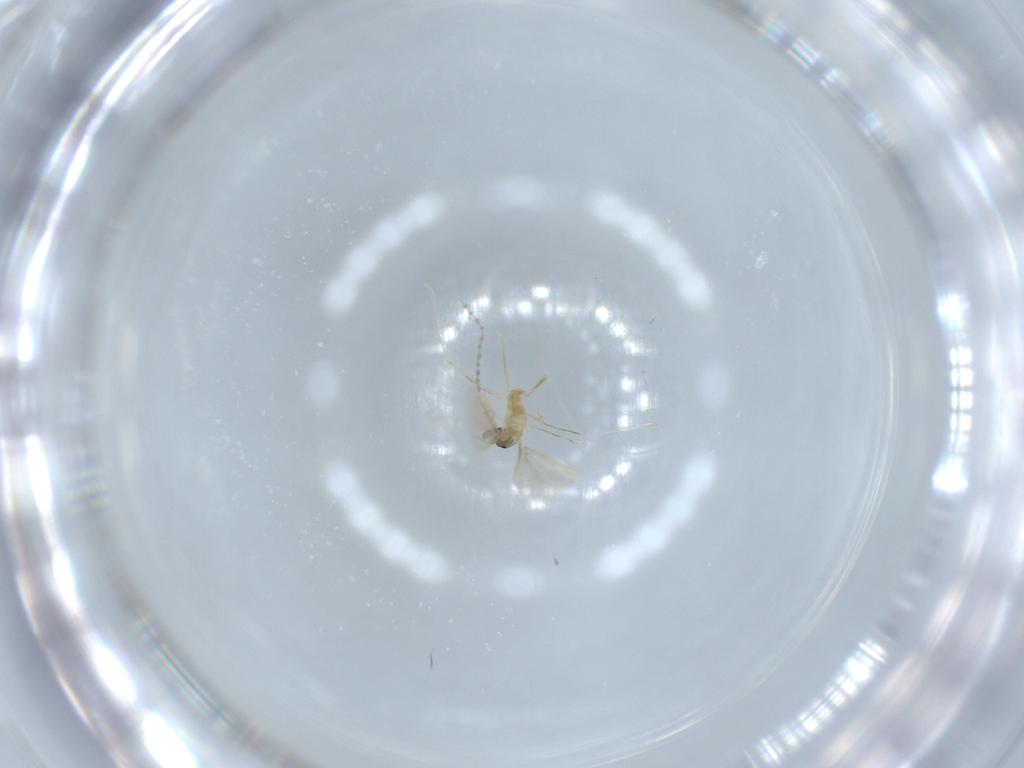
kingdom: Animalia
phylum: Arthropoda
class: Insecta
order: Diptera
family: Cecidomyiidae
